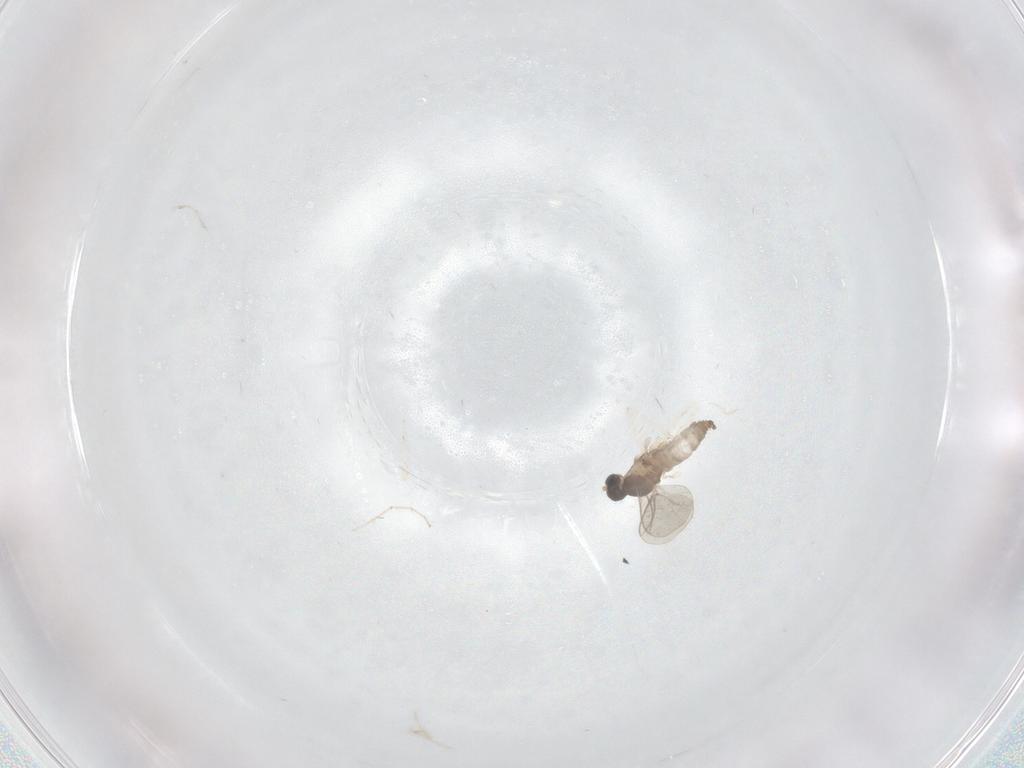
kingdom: Animalia
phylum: Arthropoda
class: Insecta
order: Diptera
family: Cecidomyiidae
